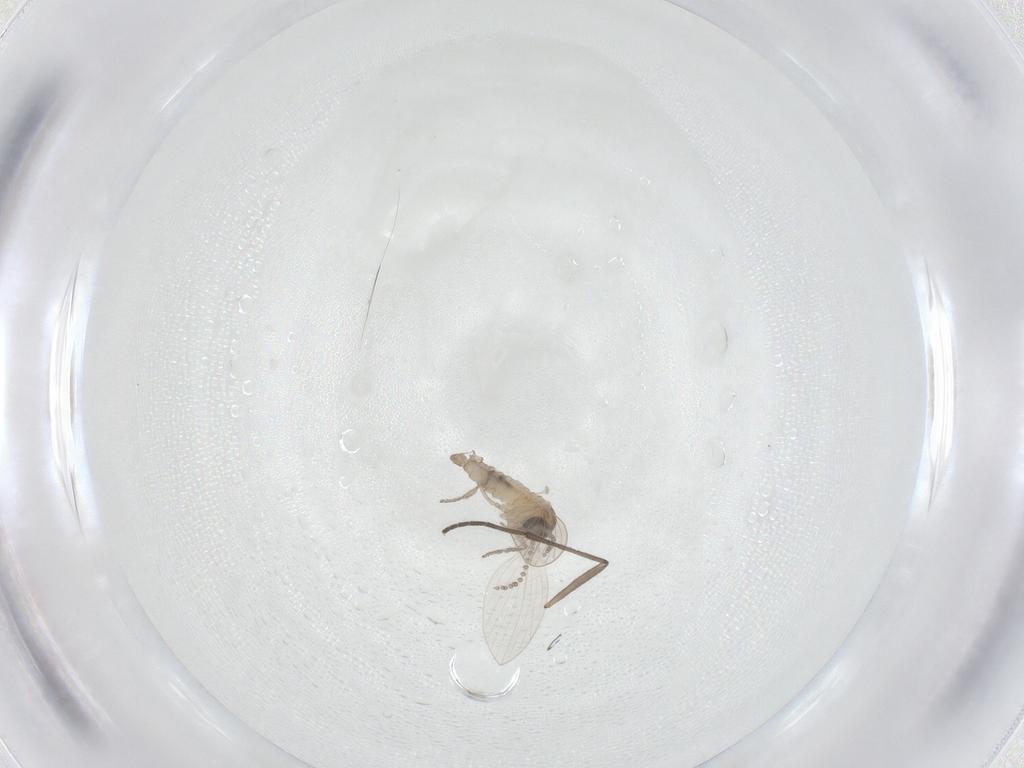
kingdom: Animalia
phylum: Arthropoda
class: Insecta
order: Diptera
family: Psychodidae
